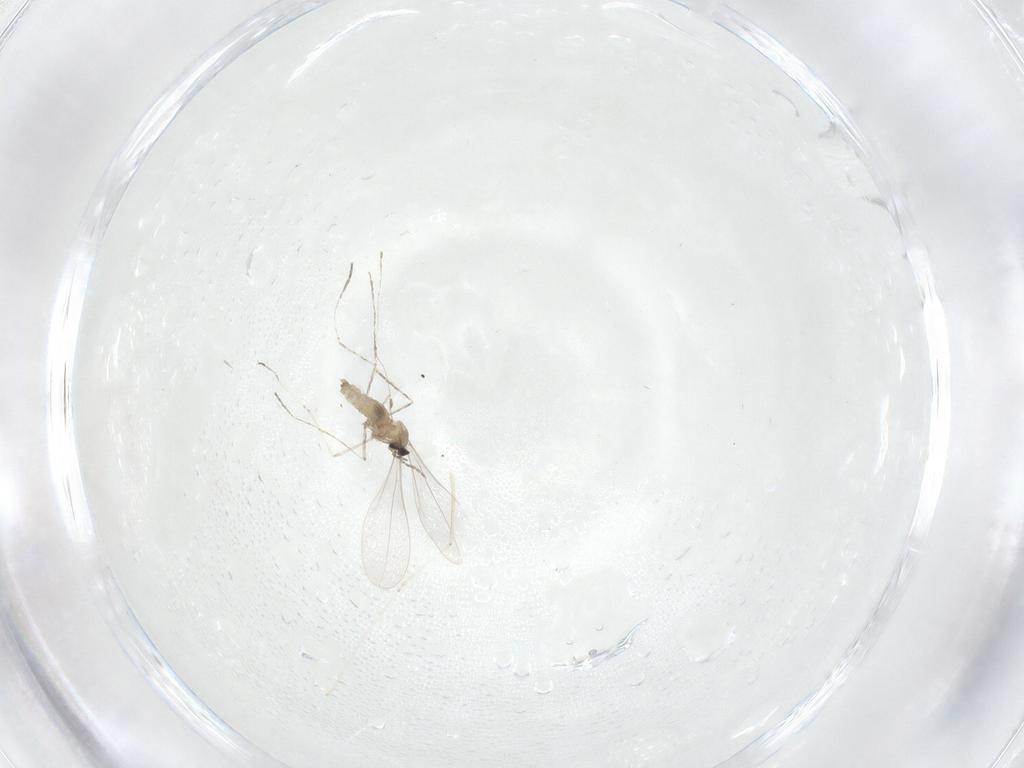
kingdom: Animalia
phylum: Arthropoda
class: Insecta
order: Diptera
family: Cecidomyiidae
